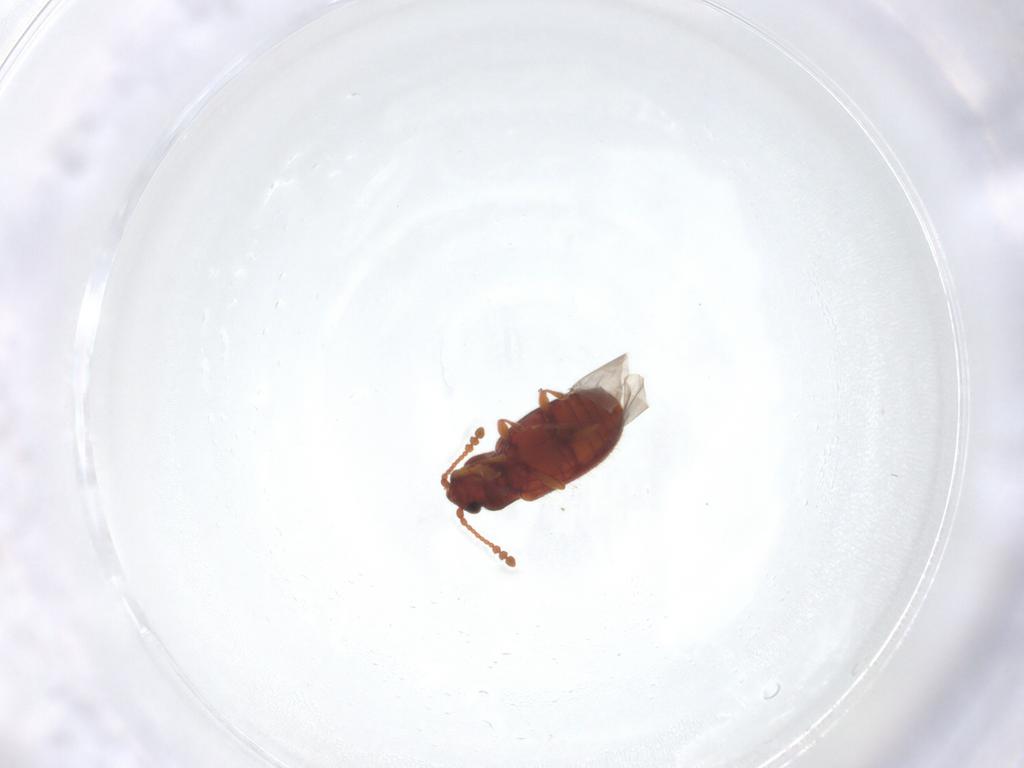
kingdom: Animalia
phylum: Arthropoda
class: Insecta
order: Coleoptera
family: Cryptophagidae
